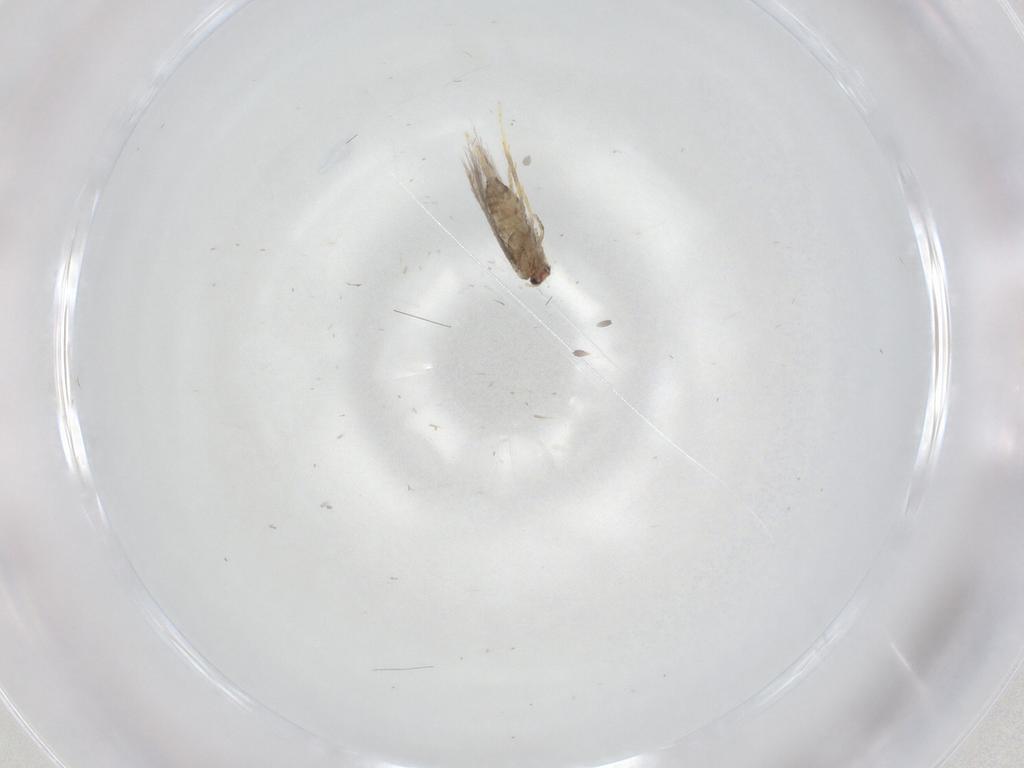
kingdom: Animalia
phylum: Arthropoda
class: Insecta
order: Lepidoptera
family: Nepticulidae
